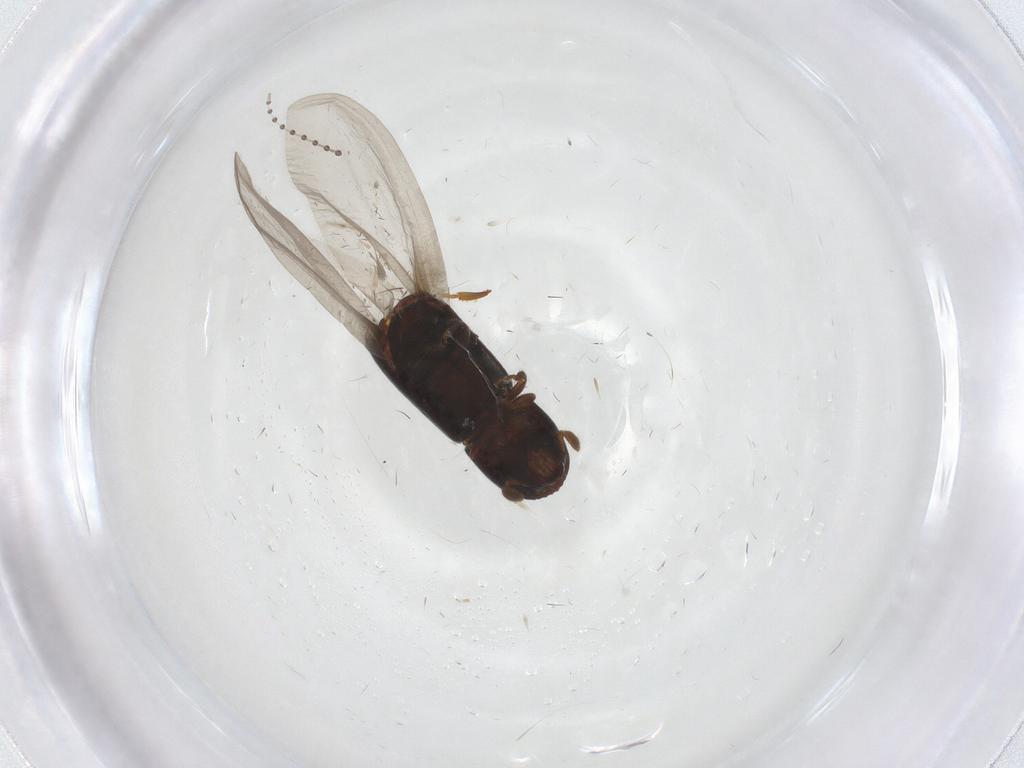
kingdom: Animalia
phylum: Arthropoda
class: Insecta
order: Coleoptera
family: Curculionidae
